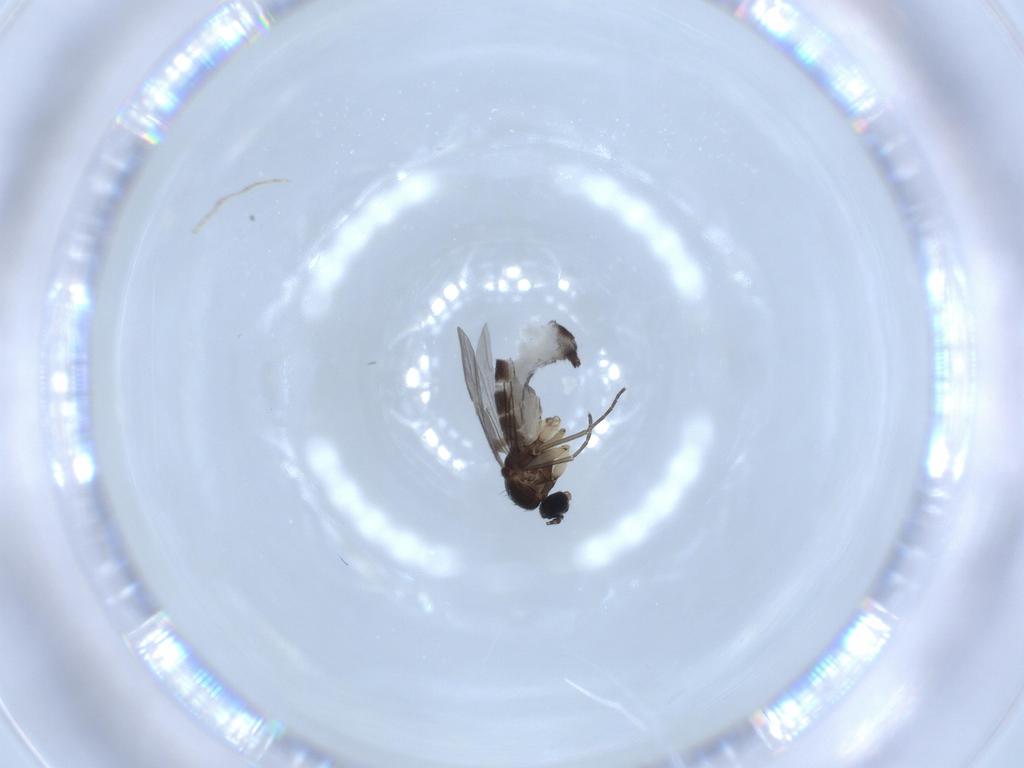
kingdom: Animalia
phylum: Arthropoda
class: Insecta
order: Diptera
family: Sciaridae
